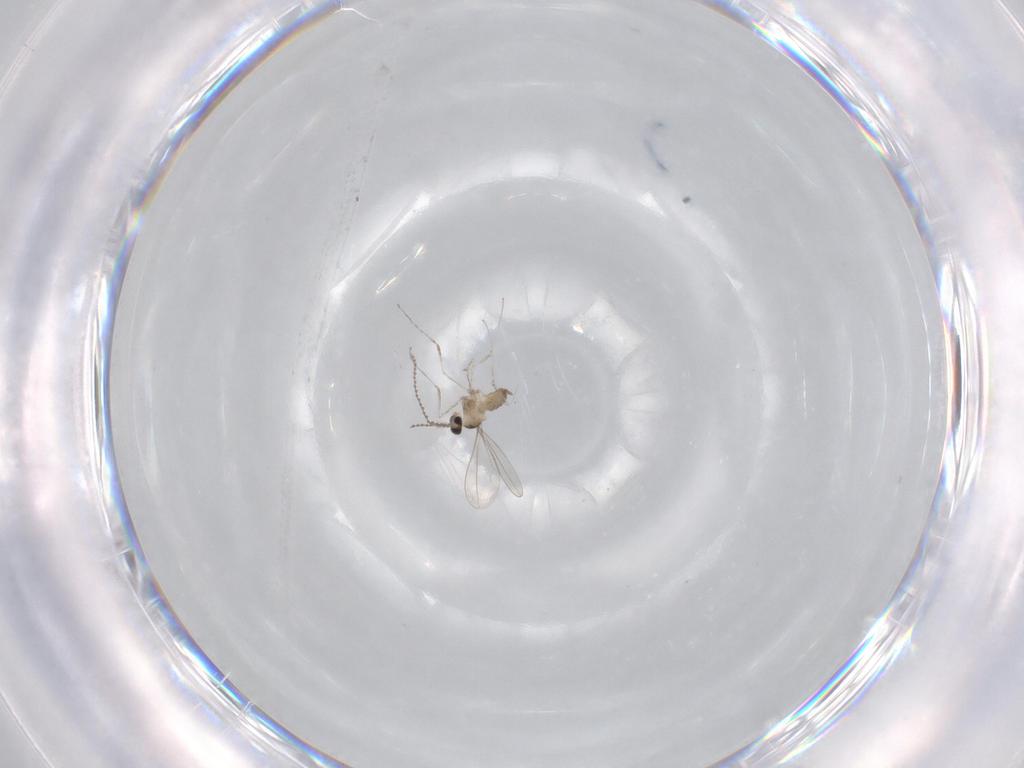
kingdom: Animalia
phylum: Arthropoda
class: Insecta
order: Diptera
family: Cecidomyiidae
